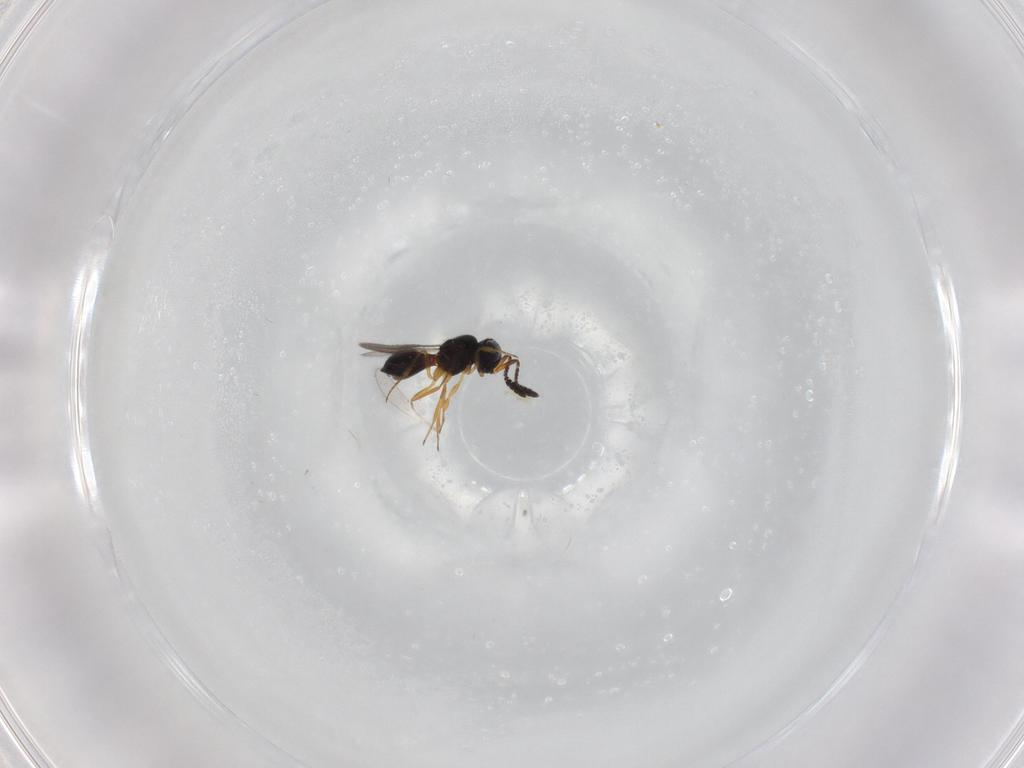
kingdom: Animalia
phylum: Arthropoda
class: Insecta
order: Hymenoptera
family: Scelionidae
